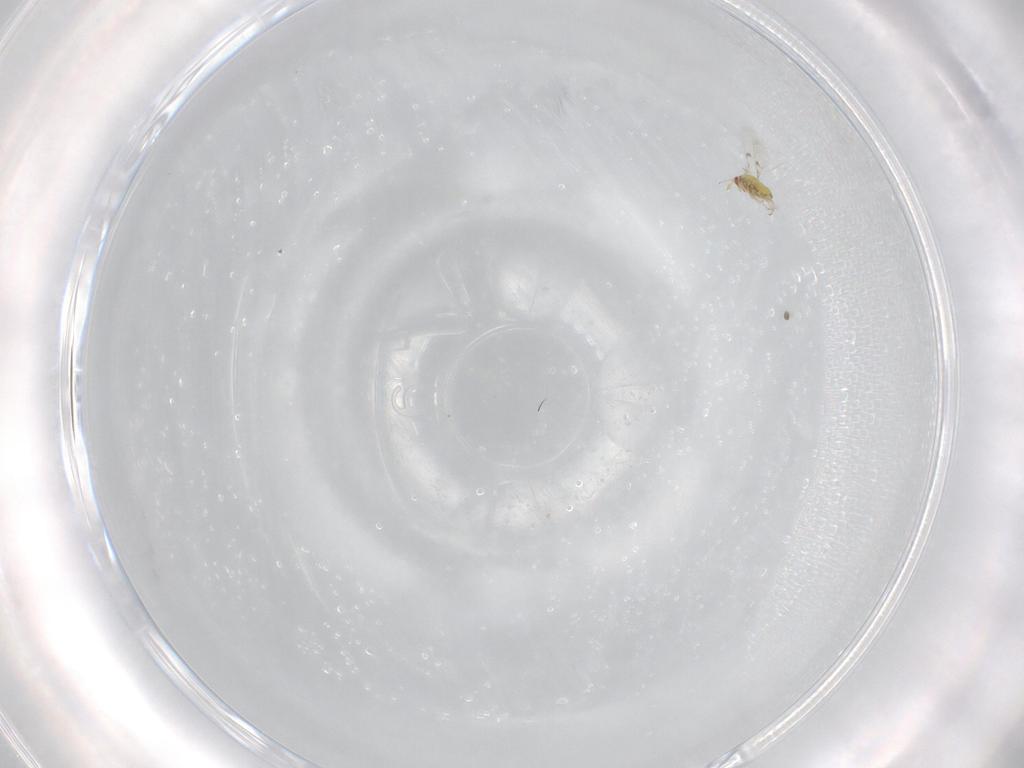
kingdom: Animalia
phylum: Arthropoda
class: Insecta
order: Hymenoptera
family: Trichogrammatidae
